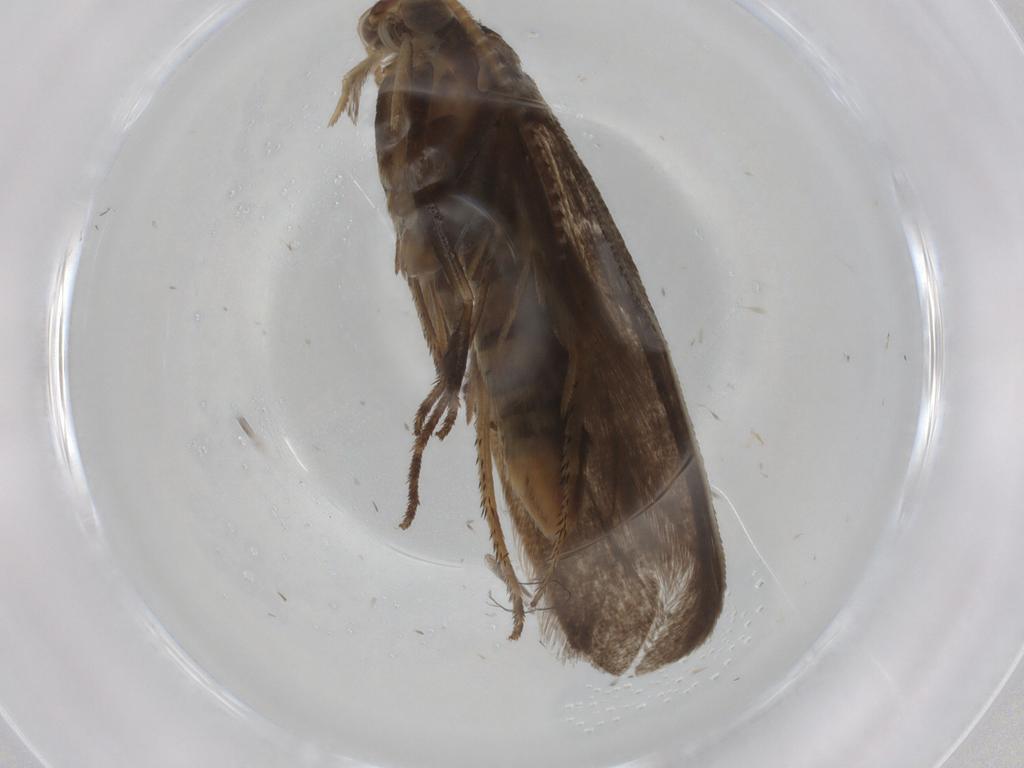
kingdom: Animalia
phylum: Arthropoda
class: Insecta
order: Lepidoptera
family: Gracillariidae
